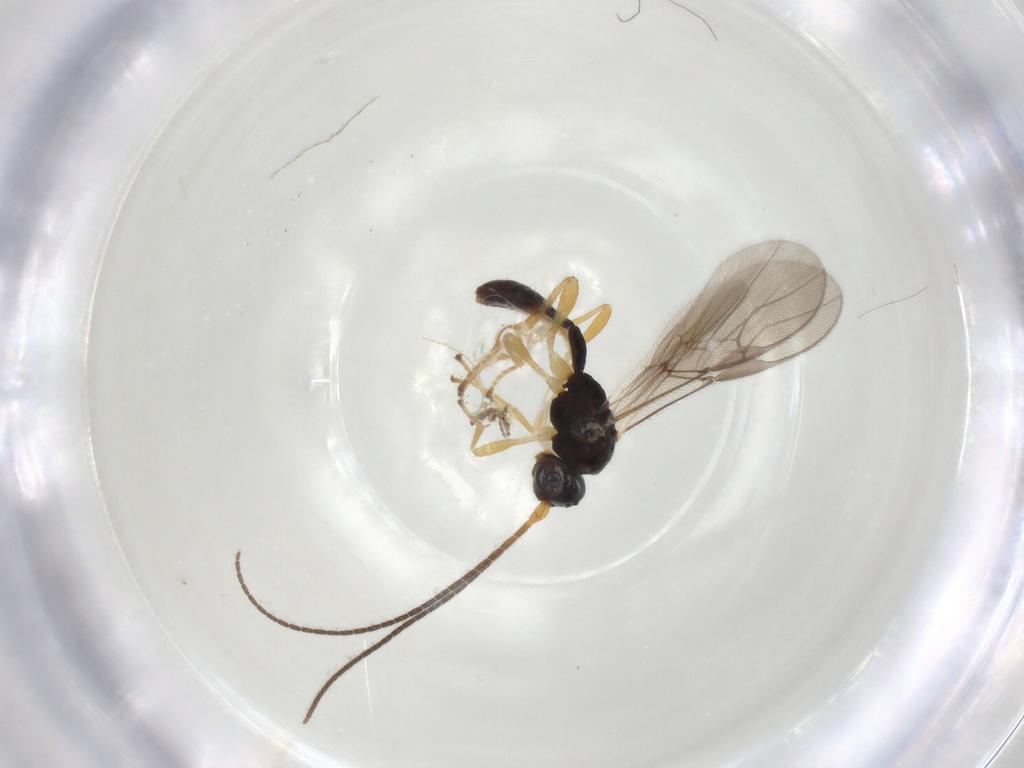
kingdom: Animalia
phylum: Arthropoda
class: Insecta
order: Hymenoptera
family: Braconidae
